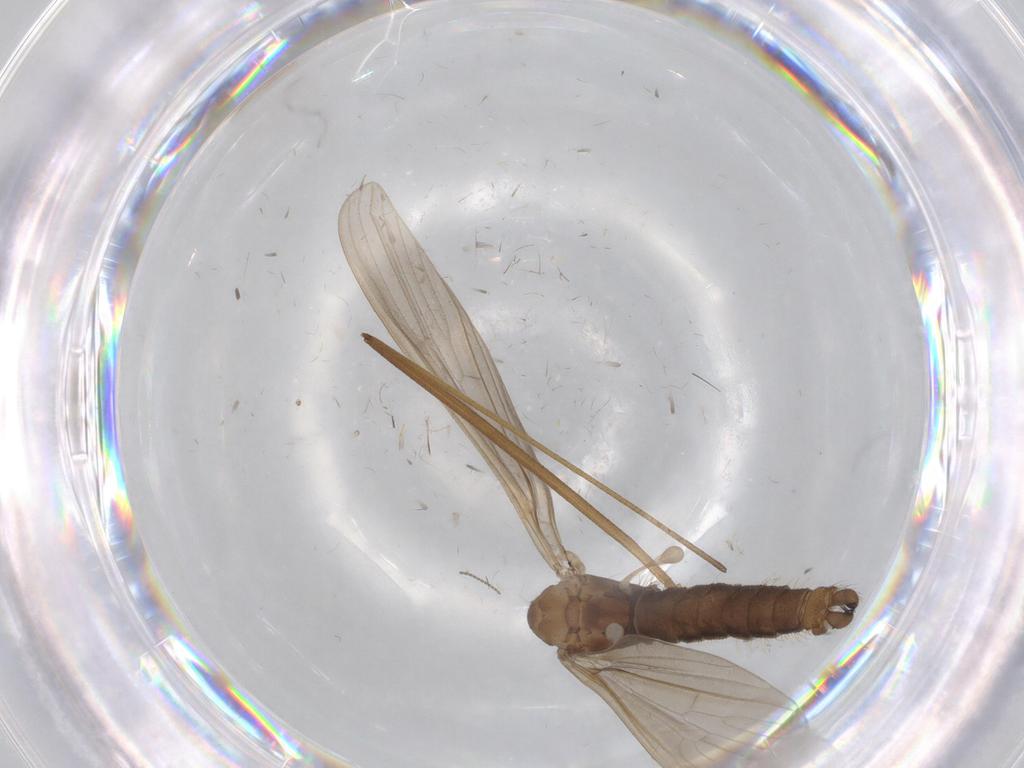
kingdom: Animalia
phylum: Arthropoda
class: Insecta
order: Diptera
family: Limoniidae
